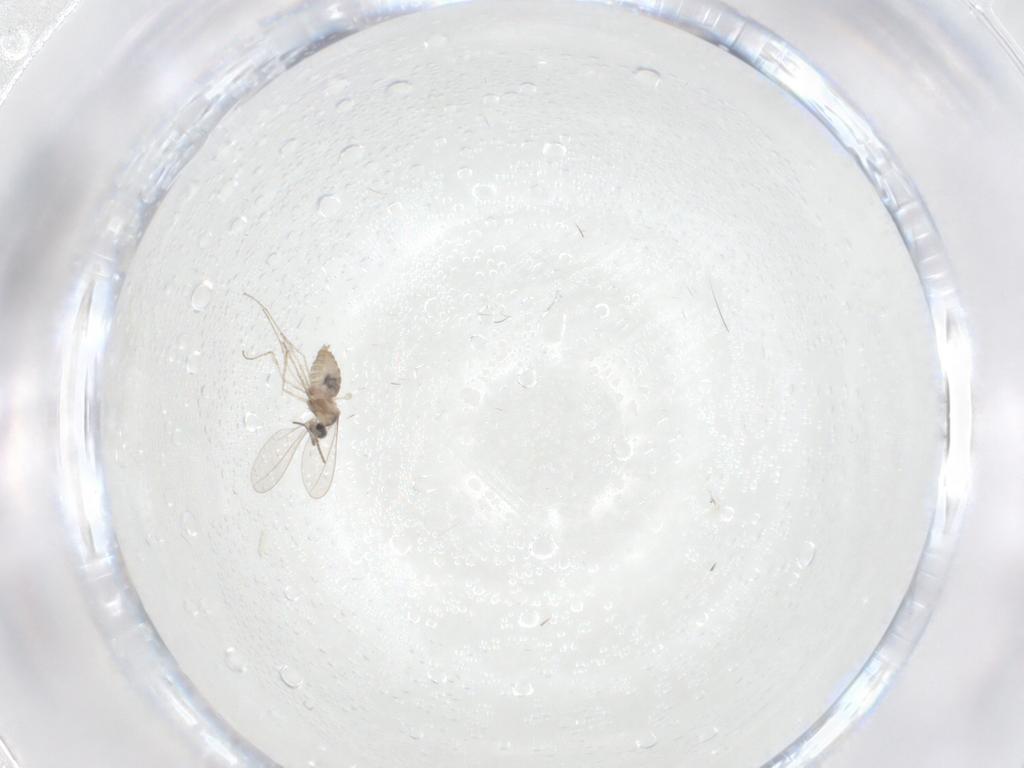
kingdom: Animalia
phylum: Arthropoda
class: Insecta
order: Diptera
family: Cecidomyiidae
